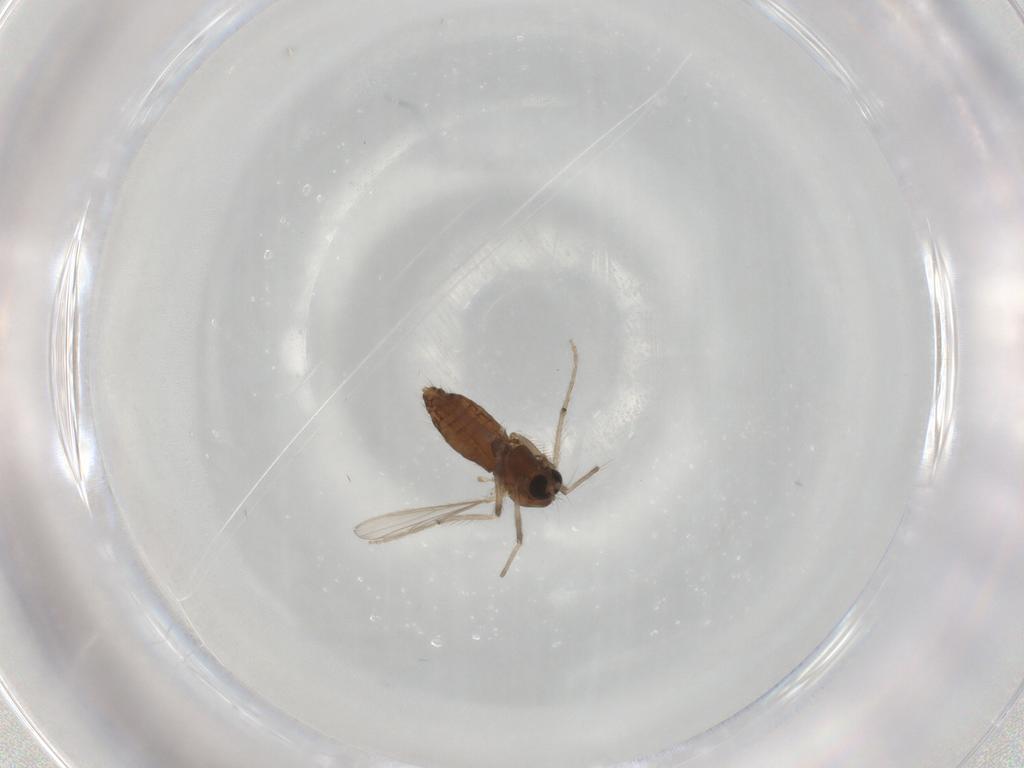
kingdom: Animalia
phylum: Arthropoda
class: Insecta
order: Diptera
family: Chironomidae
